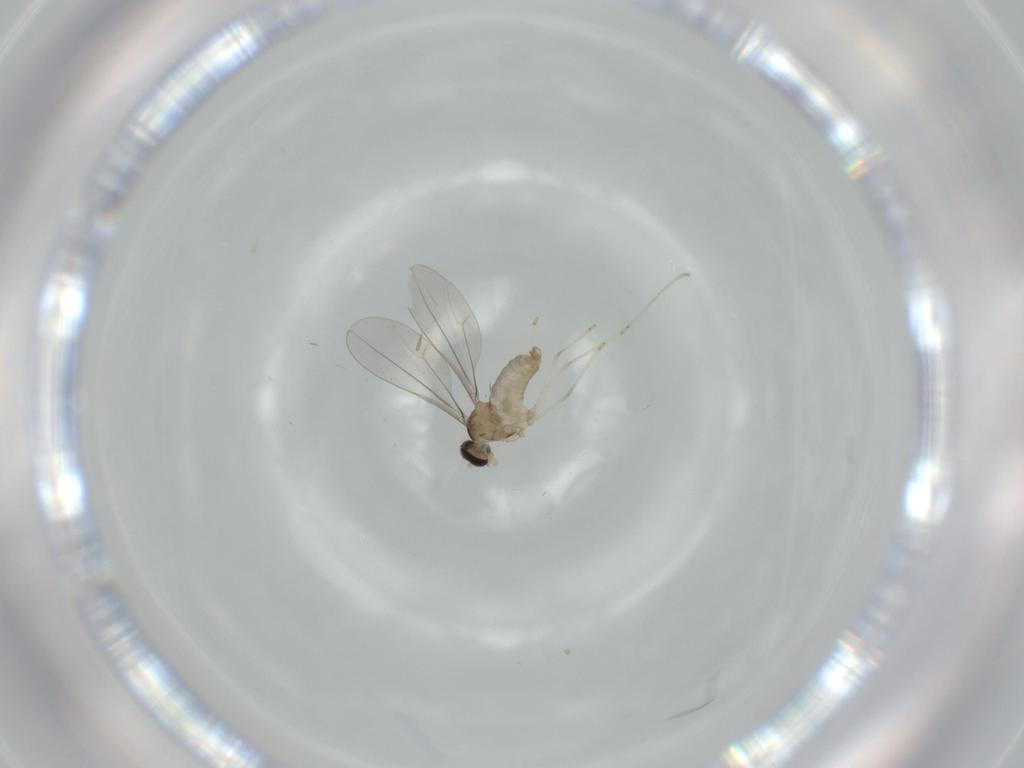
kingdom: Animalia
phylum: Arthropoda
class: Insecta
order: Diptera
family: Cecidomyiidae
